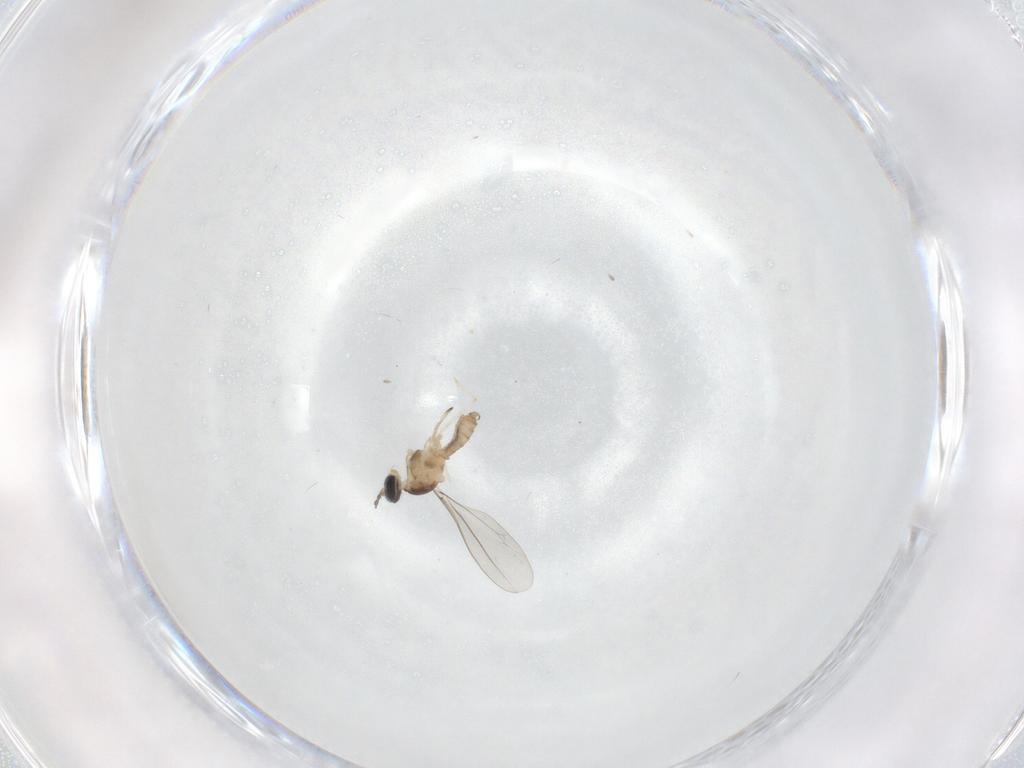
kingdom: Animalia
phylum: Arthropoda
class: Insecta
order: Diptera
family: Cecidomyiidae
